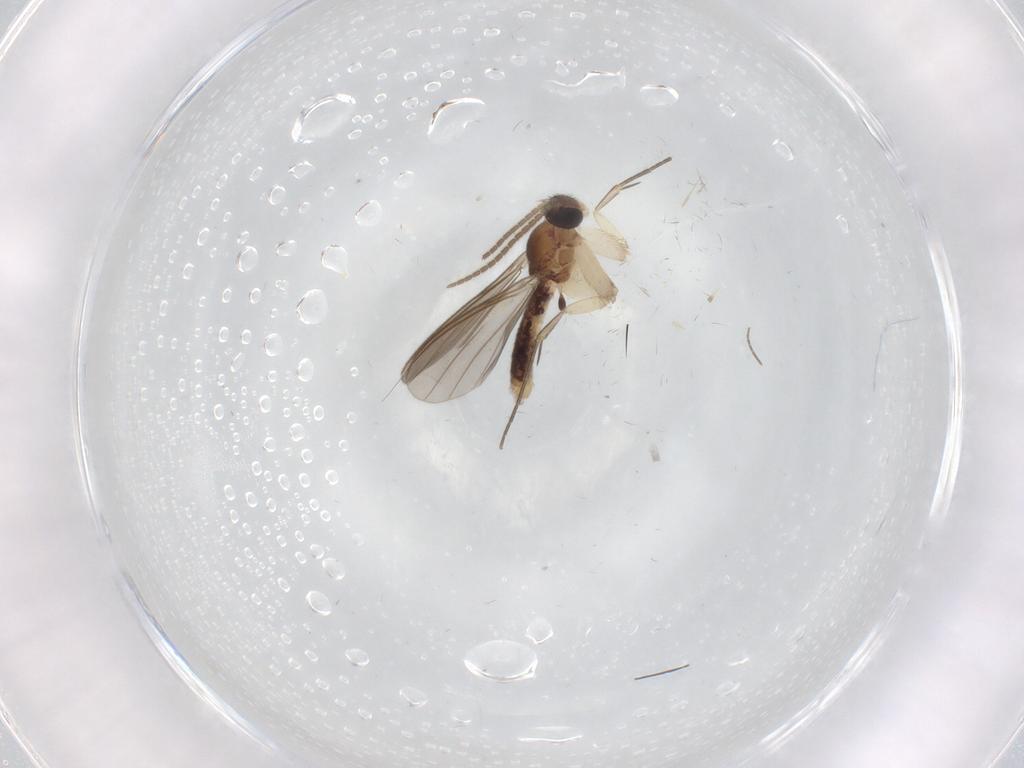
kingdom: Animalia
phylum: Arthropoda
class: Insecta
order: Diptera
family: Mycetophilidae
